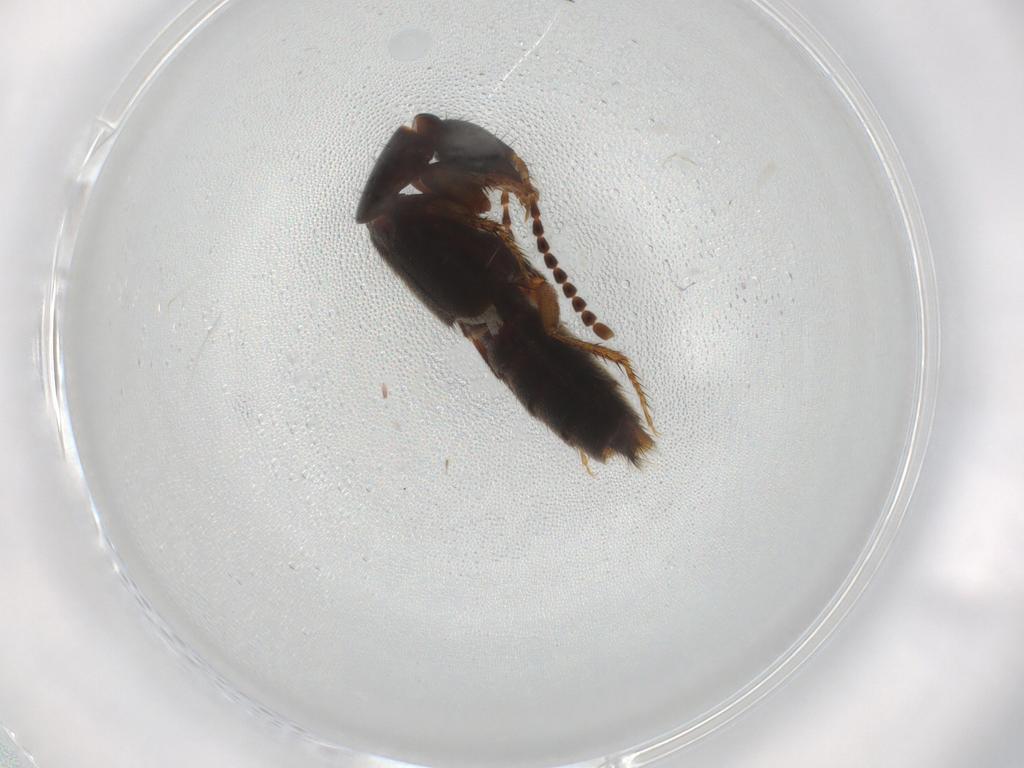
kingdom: Animalia
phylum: Arthropoda
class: Insecta
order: Coleoptera
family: Staphylinidae
